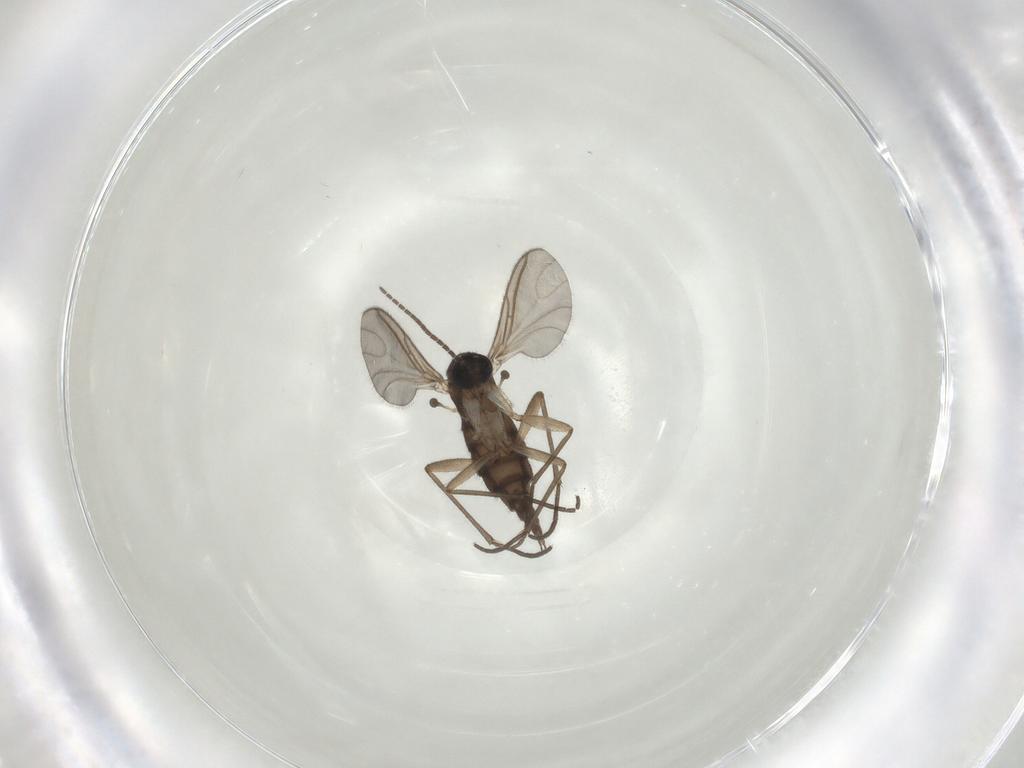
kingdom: Animalia
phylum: Arthropoda
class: Insecta
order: Diptera
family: Sciaridae
